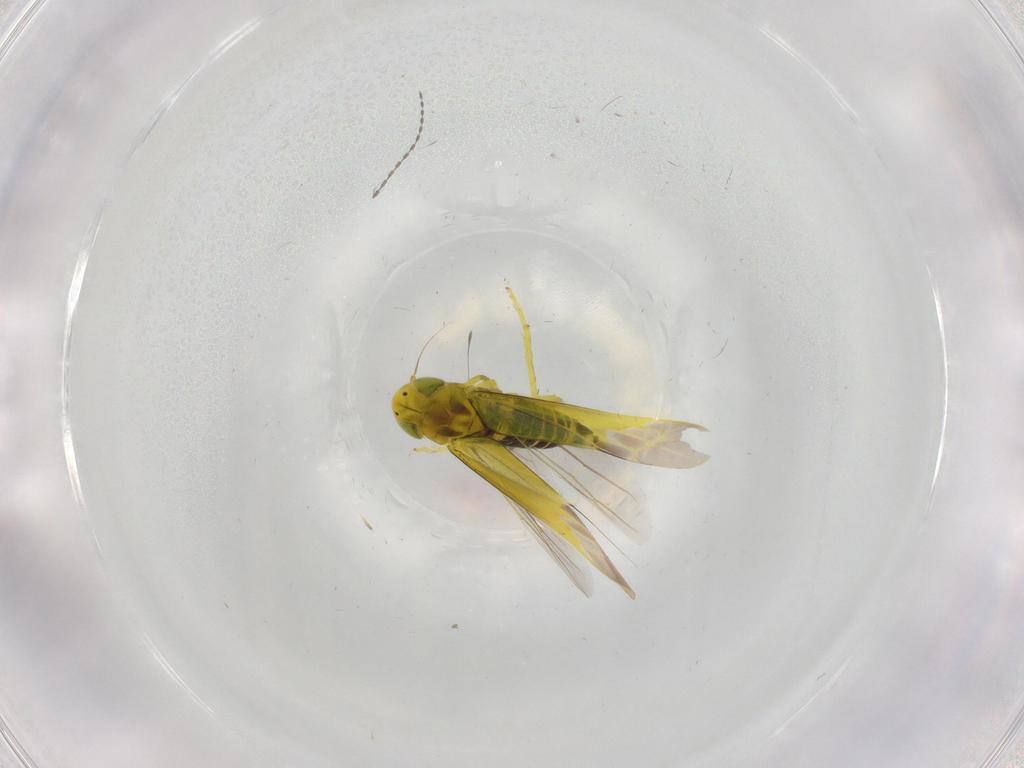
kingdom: Animalia
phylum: Arthropoda
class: Insecta
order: Hemiptera
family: Cicadellidae
